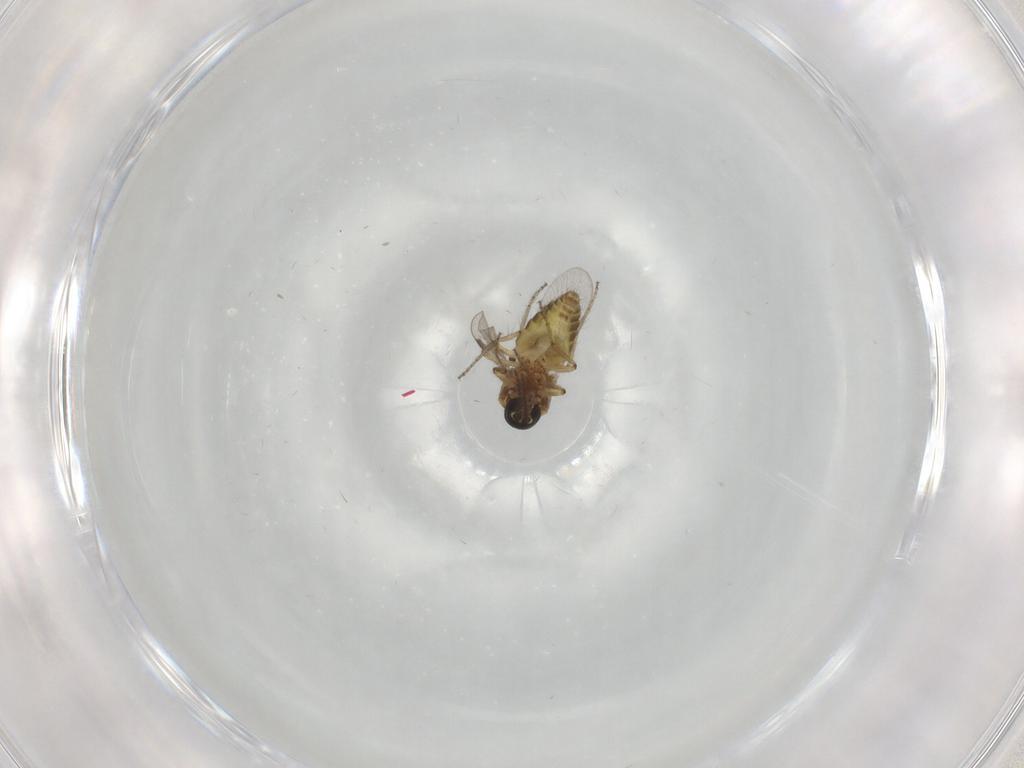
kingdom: Animalia
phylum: Arthropoda
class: Insecta
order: Diptera
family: Ceratopogonidae
